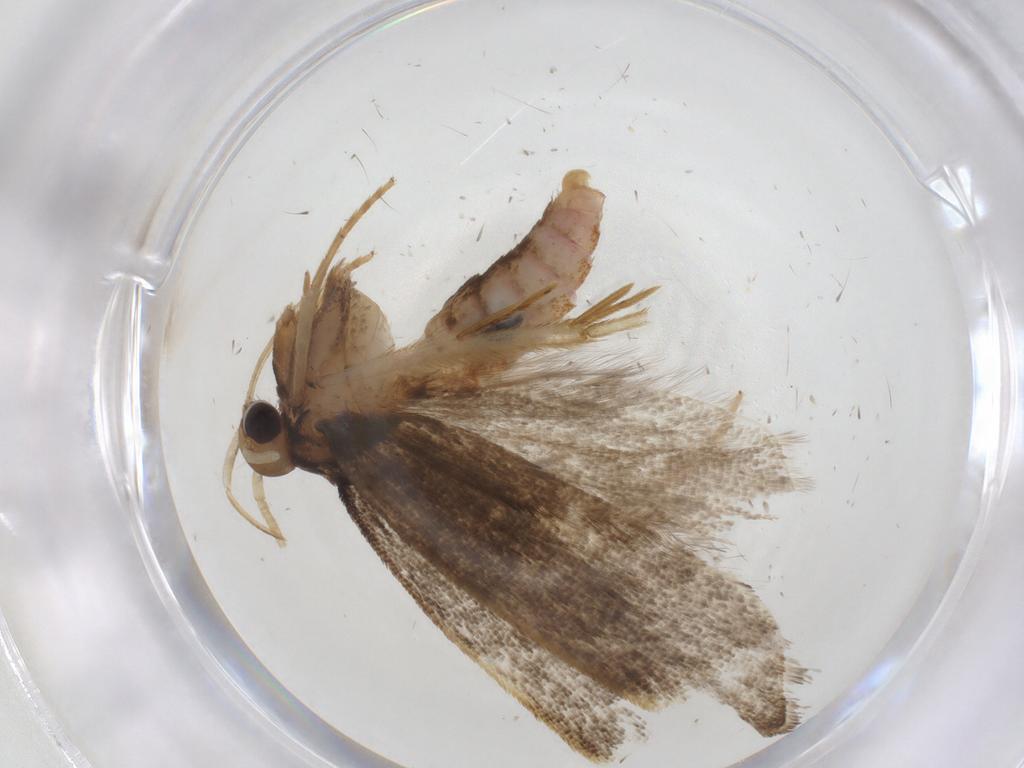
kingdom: Animalia
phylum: Arthropoda
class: Insecta
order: Lepidoptera
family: Lecithoceridae
